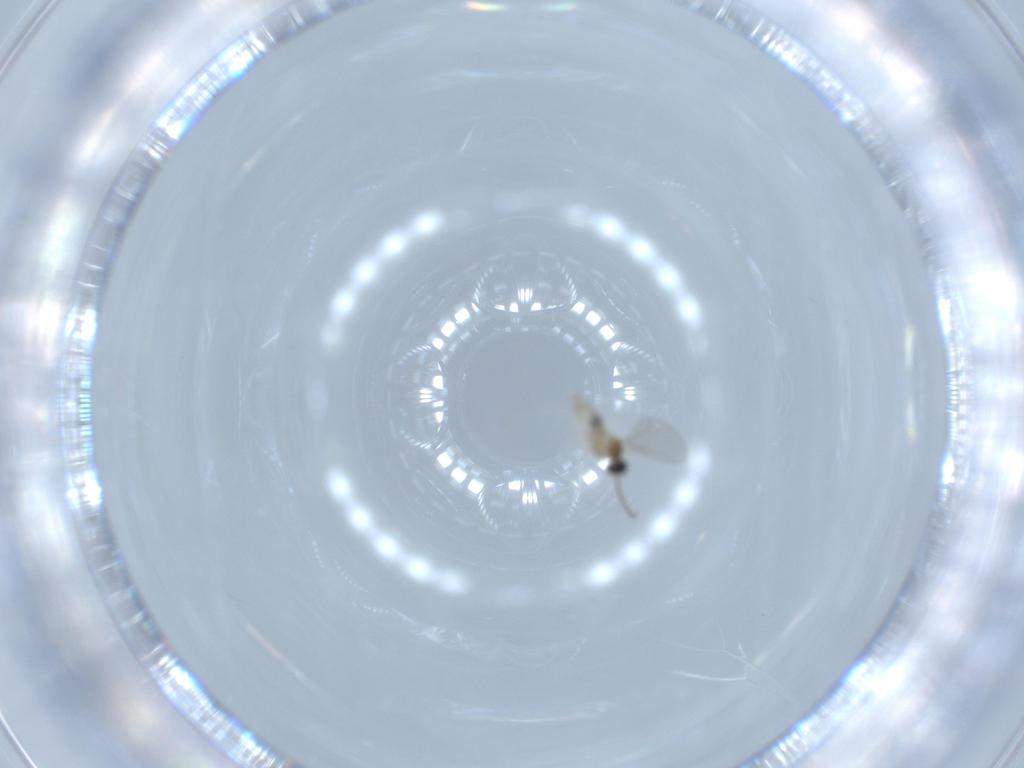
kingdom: Animalia
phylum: Arthropoda
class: Insecta
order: Diptera
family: Cecidomyiidae
